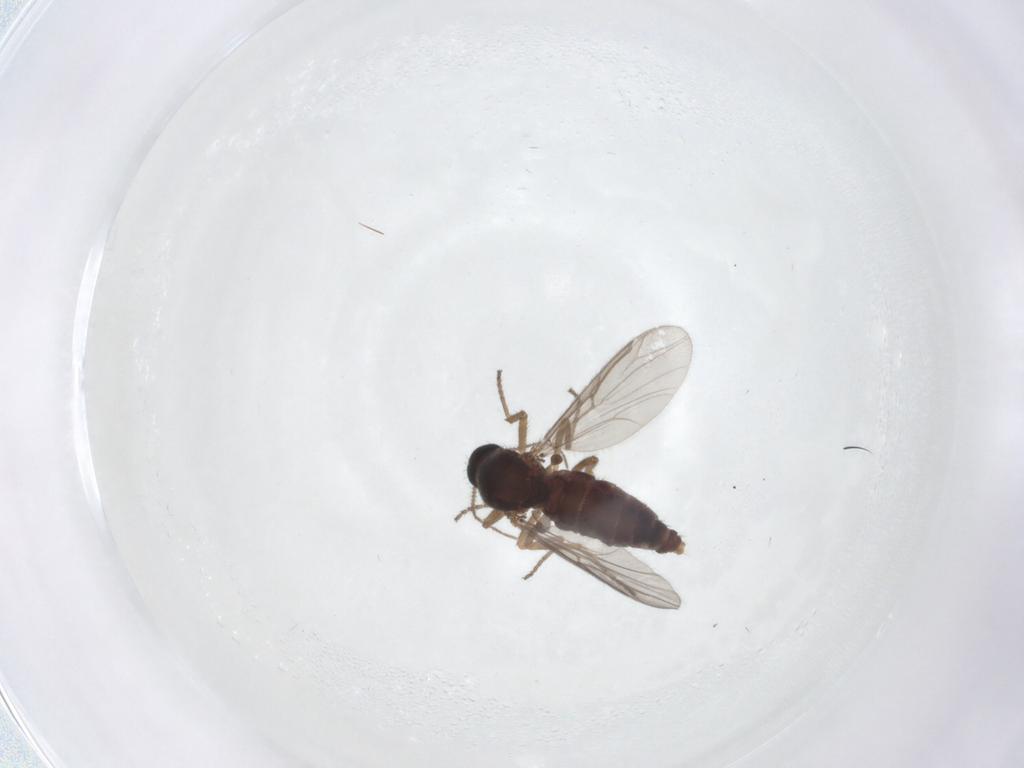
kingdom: Animalia
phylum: Arthropoda
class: Insecta
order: Diptera
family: Ceratopogonidae
